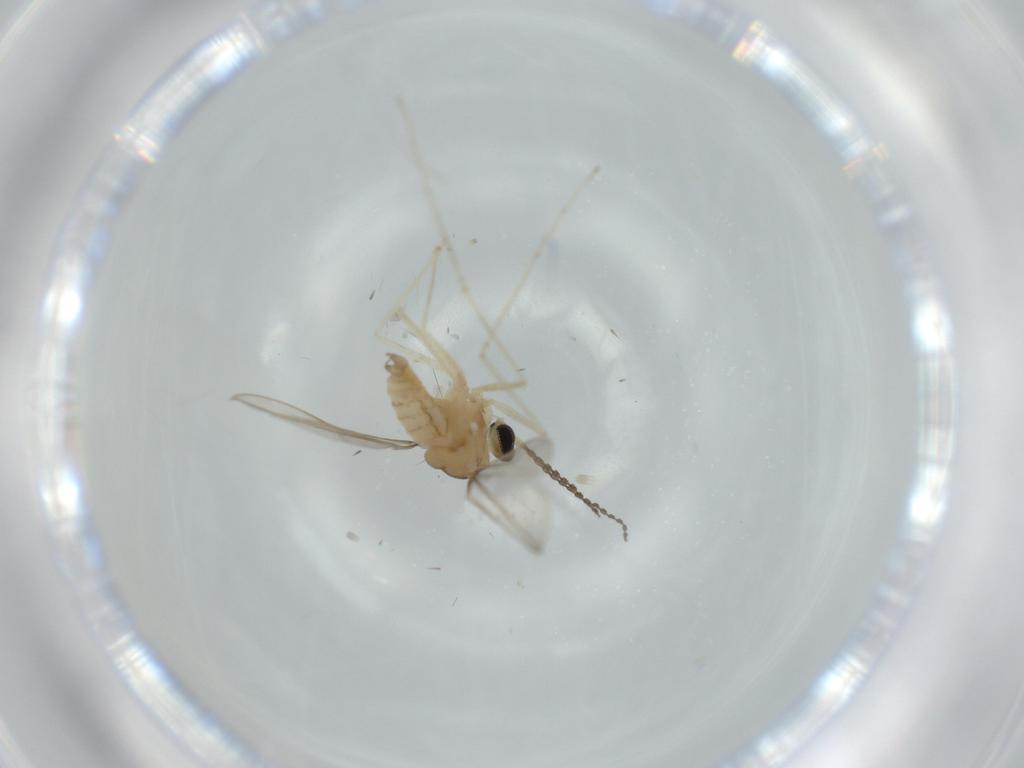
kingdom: Animalia
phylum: Arthropoda
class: Insecta
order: Diptera
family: Cecidomyiidae
